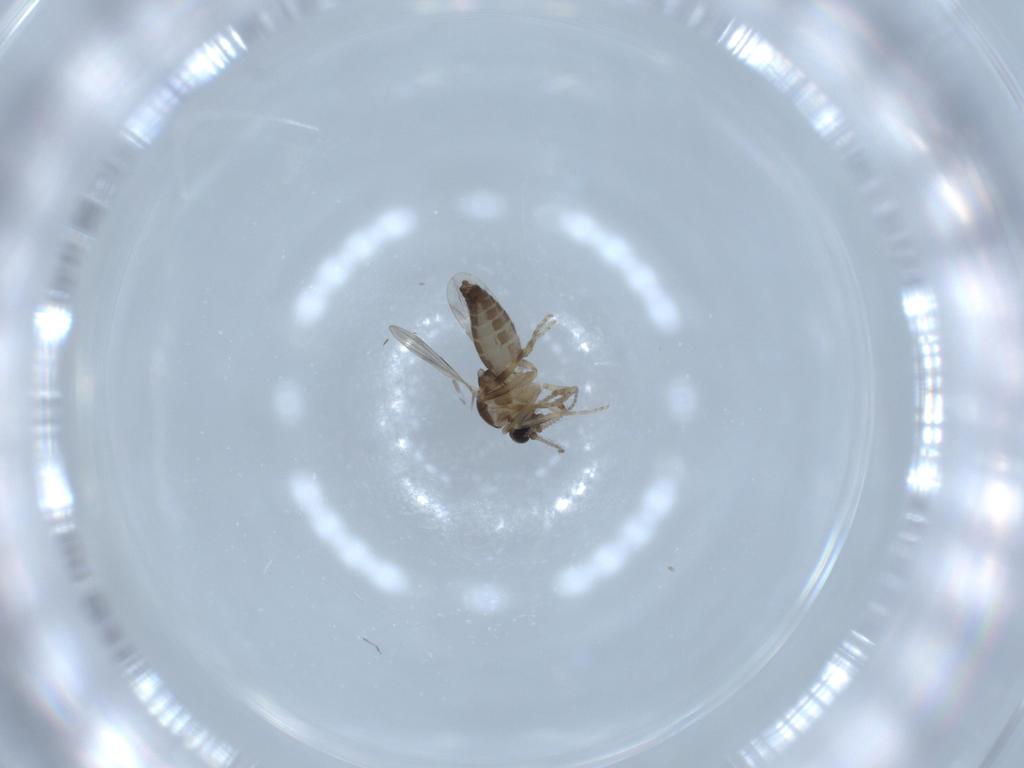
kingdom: Animalia
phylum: Arthropoda
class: Insecta
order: Diptera
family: Ceratopogonidae
